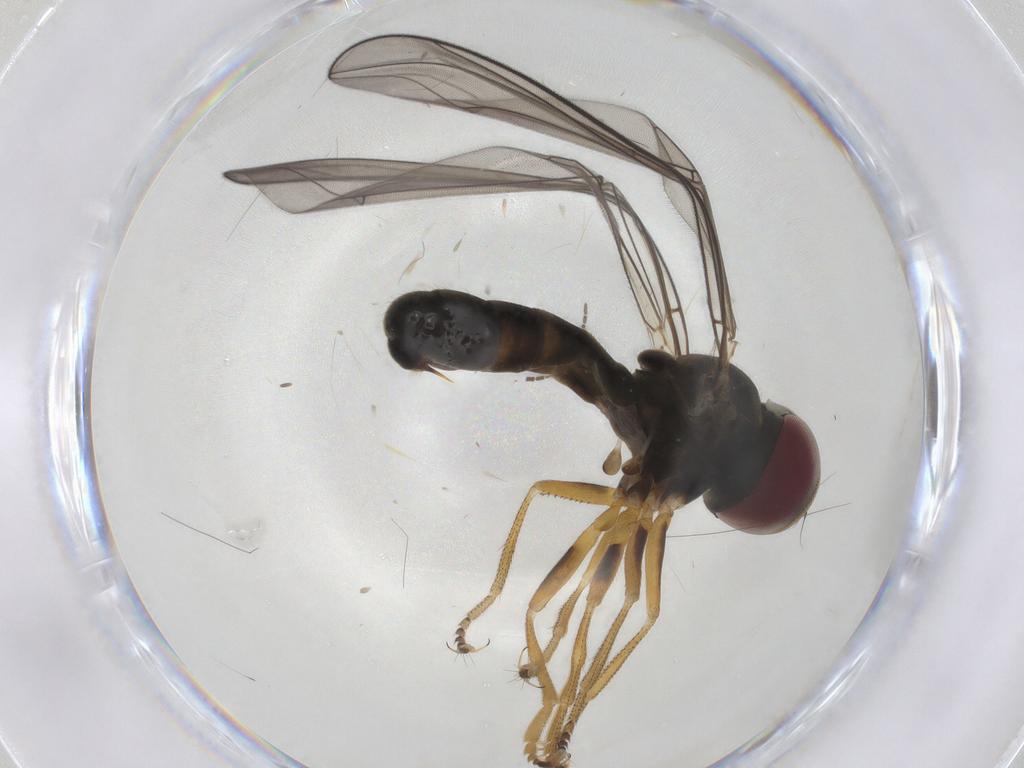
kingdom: Animalia
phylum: Arthropoda
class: Insecta
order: Diptera
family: Pipunculidae
